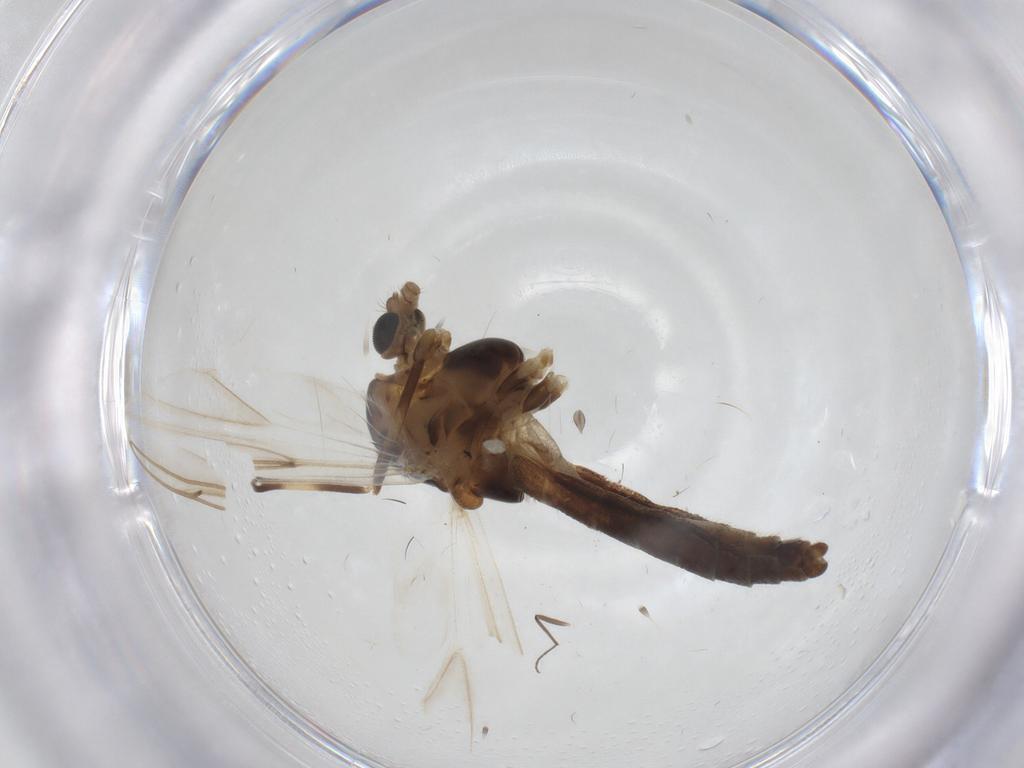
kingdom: Animalia
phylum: Arthropoda
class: Insecta
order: Diptera
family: Chironomidae
